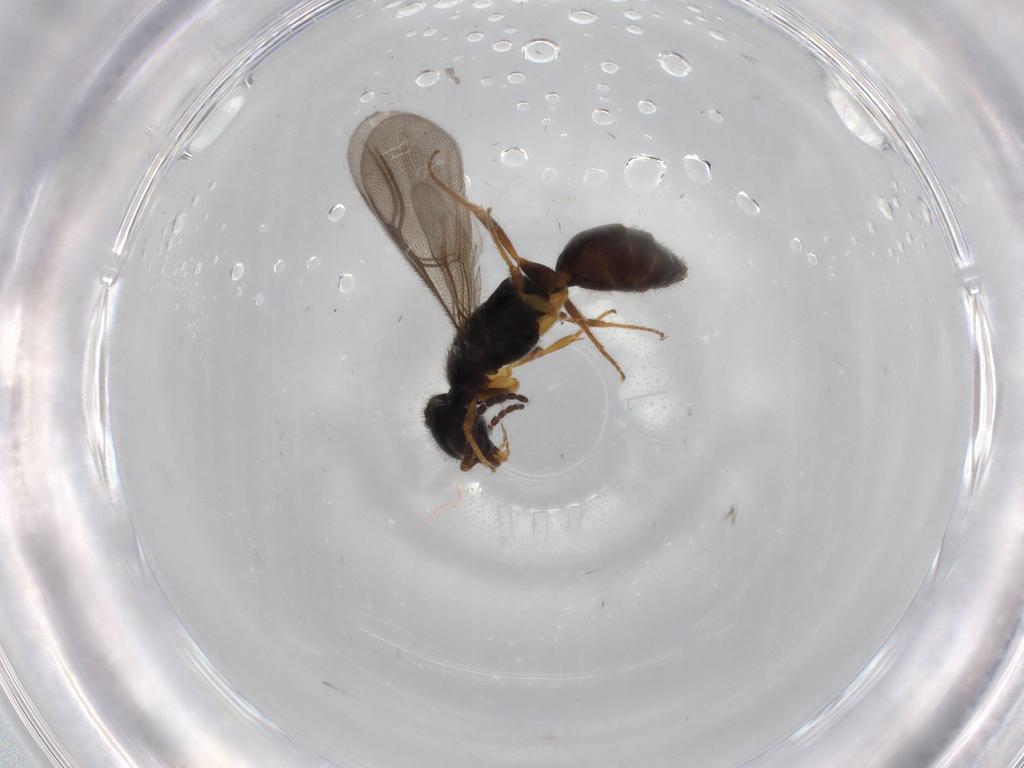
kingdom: Animalia
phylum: Arthropoda
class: Insecta
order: Hymenoptera
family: Bethylidae
